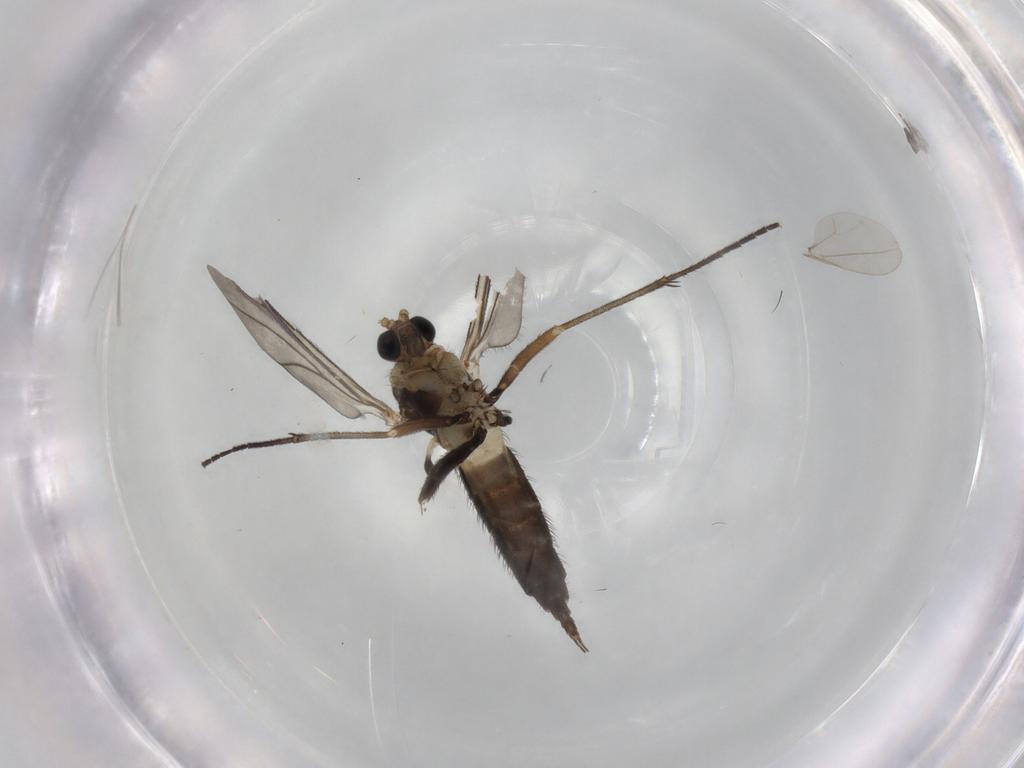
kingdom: Animalia
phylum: Arthropoda
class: Insecta
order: Diptera
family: Sciaridae
